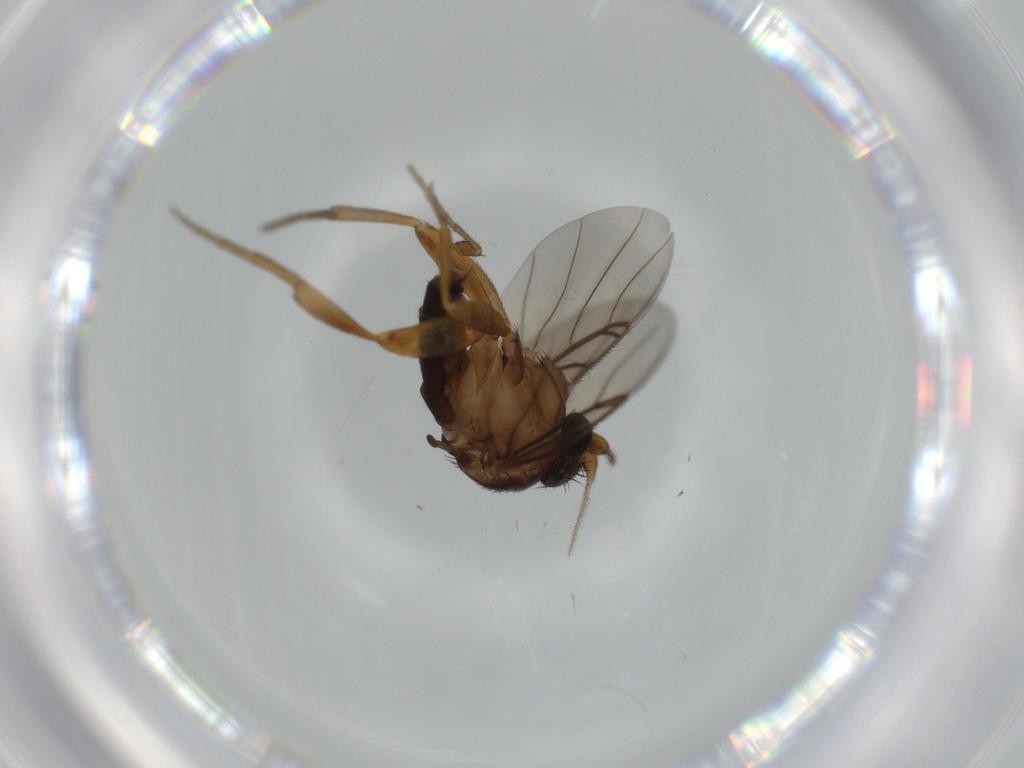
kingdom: Animalia
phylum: Arthropoda
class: Insecta
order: Diptera
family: Phoridae
